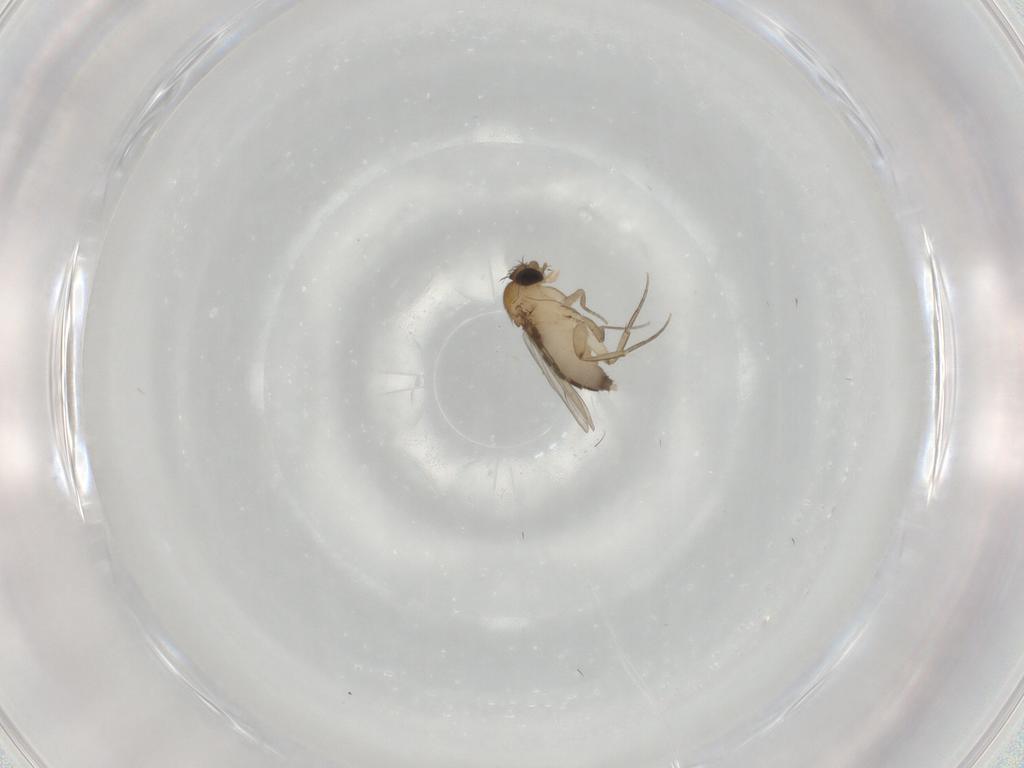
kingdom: Animalia
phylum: Arthropoda
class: Insecta
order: Diptera
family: Phoridae
